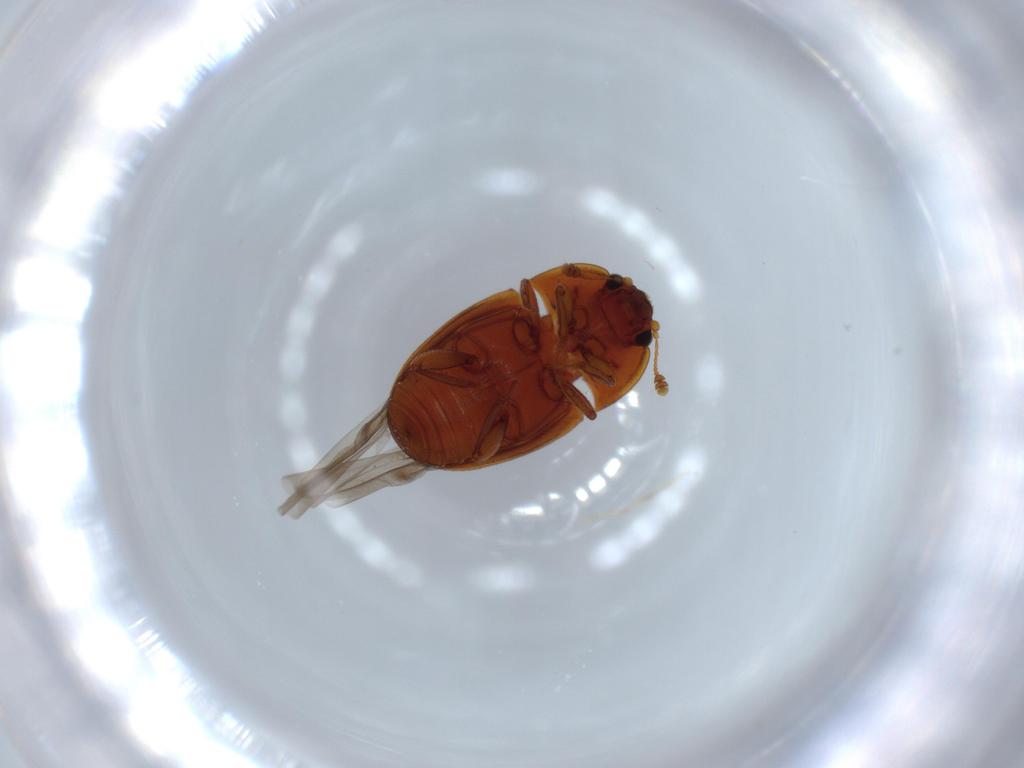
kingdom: Animalia
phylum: Arthropoda
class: Insecta
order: Coleoptera
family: Nitidulidae
